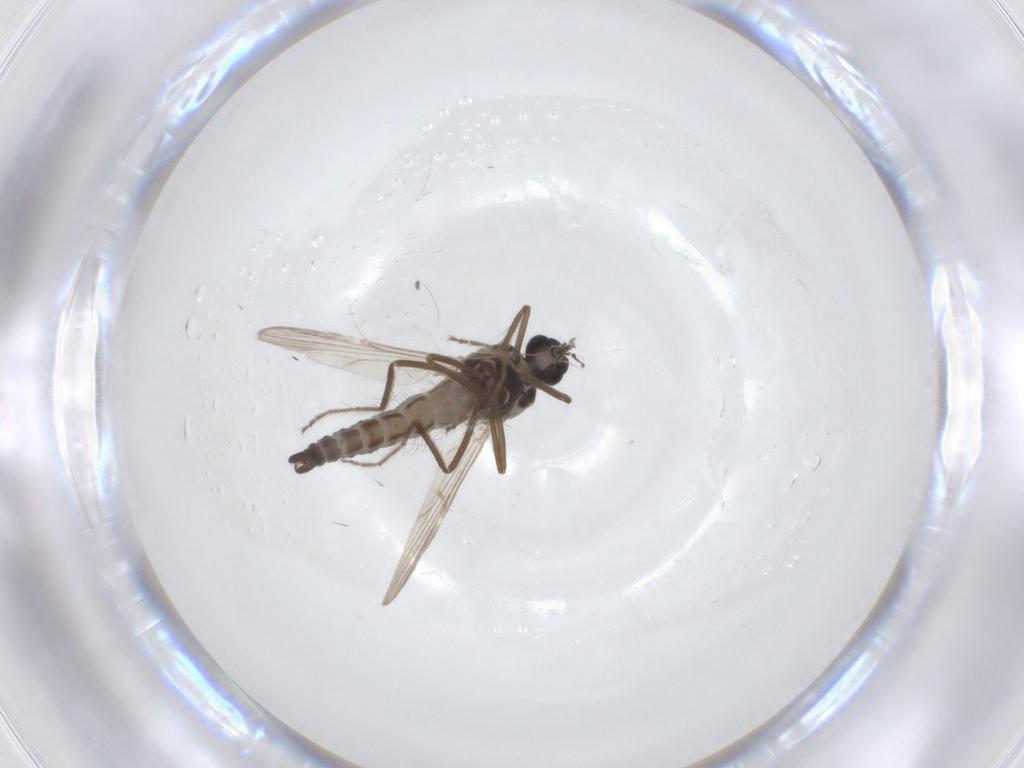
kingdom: Animalia
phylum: Arthropoda
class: Insecta
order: Diptera
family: Ceratopogonidae
